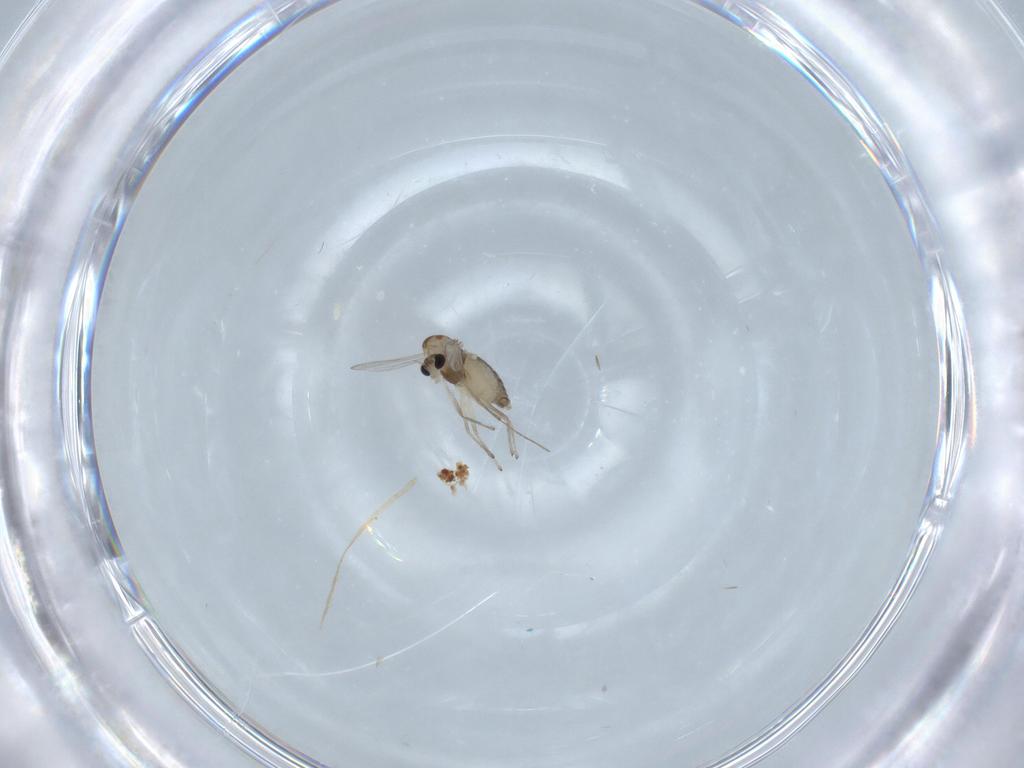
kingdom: Animalia
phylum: Arthropoda
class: Insecta
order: Diptera
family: Chironomidae
